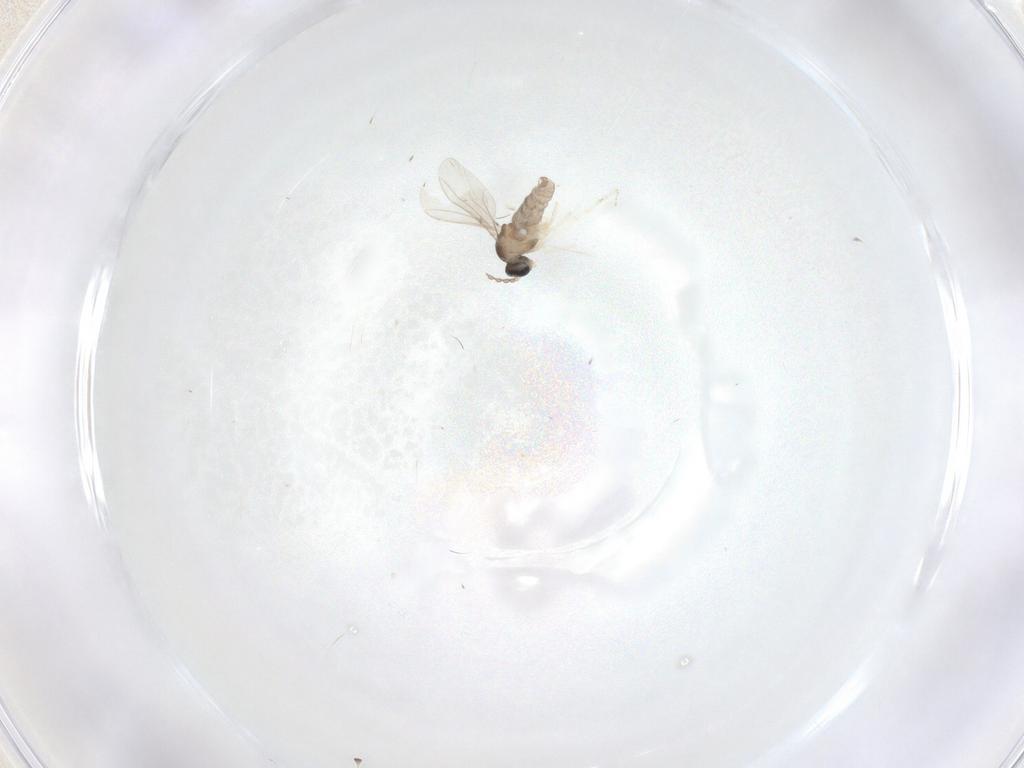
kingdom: Animalia
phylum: Arthropoda
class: Insecta
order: Diptera
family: Cecidomyiidae
